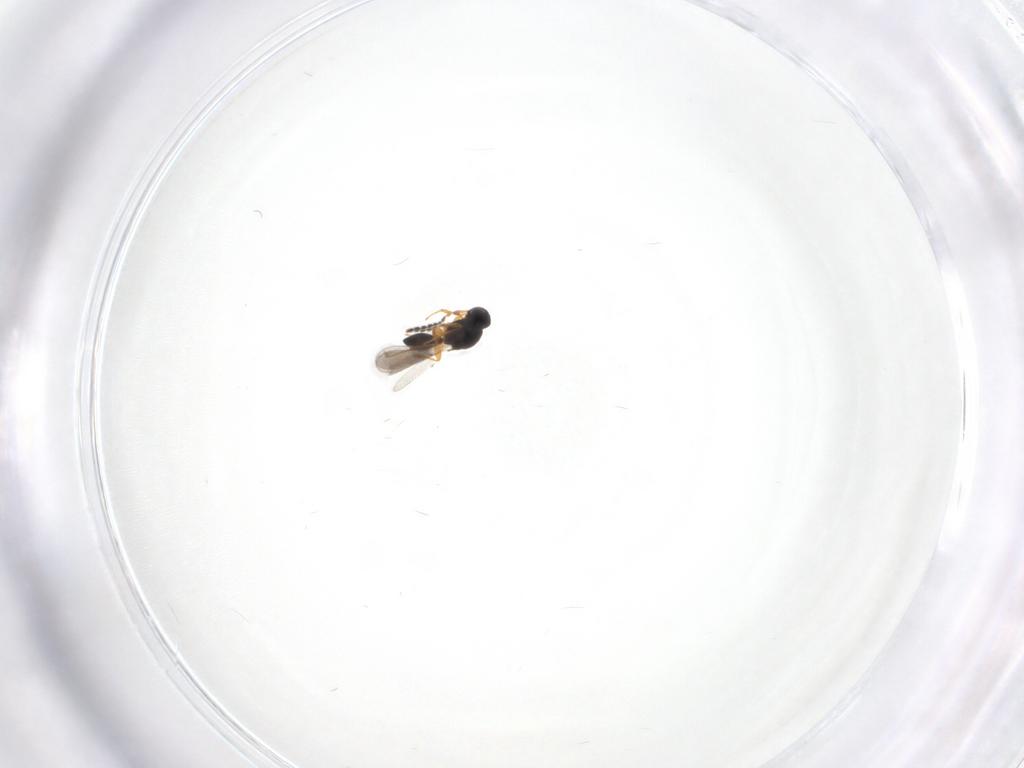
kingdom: Animalia
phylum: Arthropoda
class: Insecta
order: Diptera
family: Cecidomyiidae
